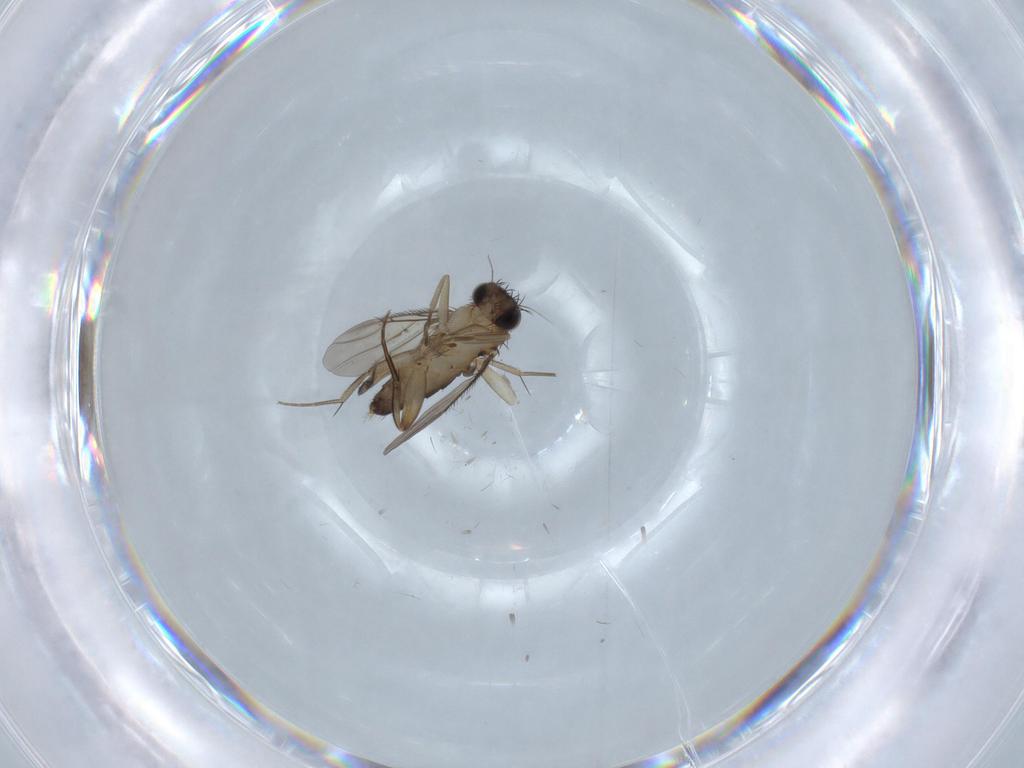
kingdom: Animalia
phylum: Arthropoda
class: Insecta
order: Diptera
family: Phoridae
